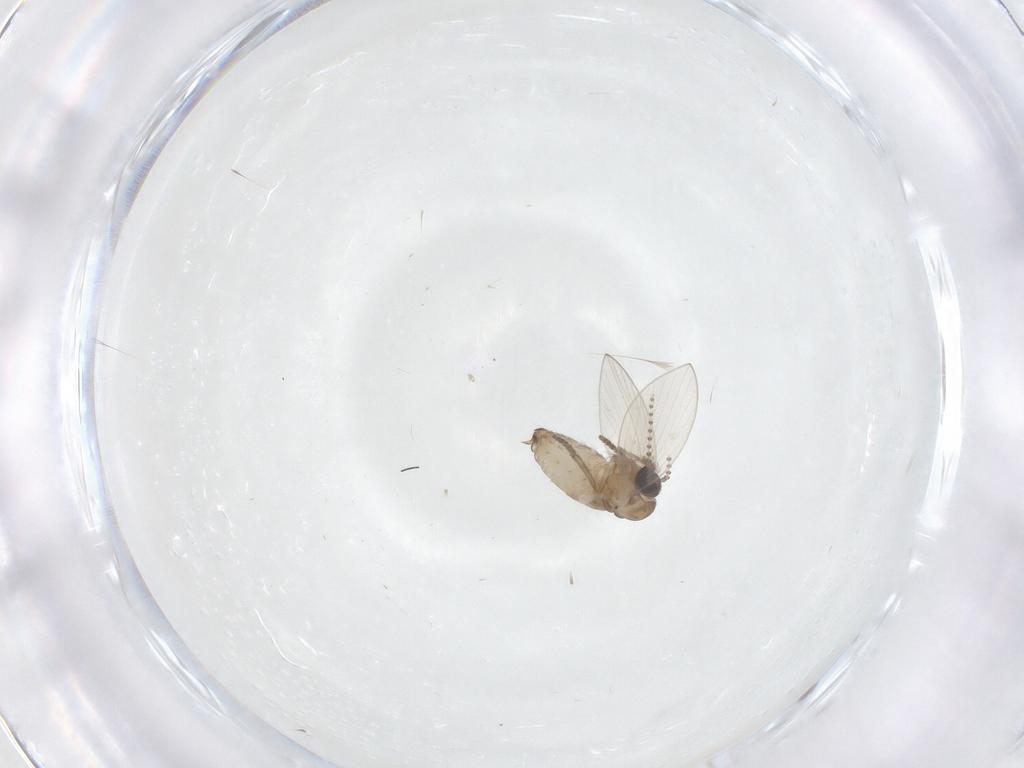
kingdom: Animalia
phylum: Arthropoda
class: Insecta
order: Diptera
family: Psychodidae
